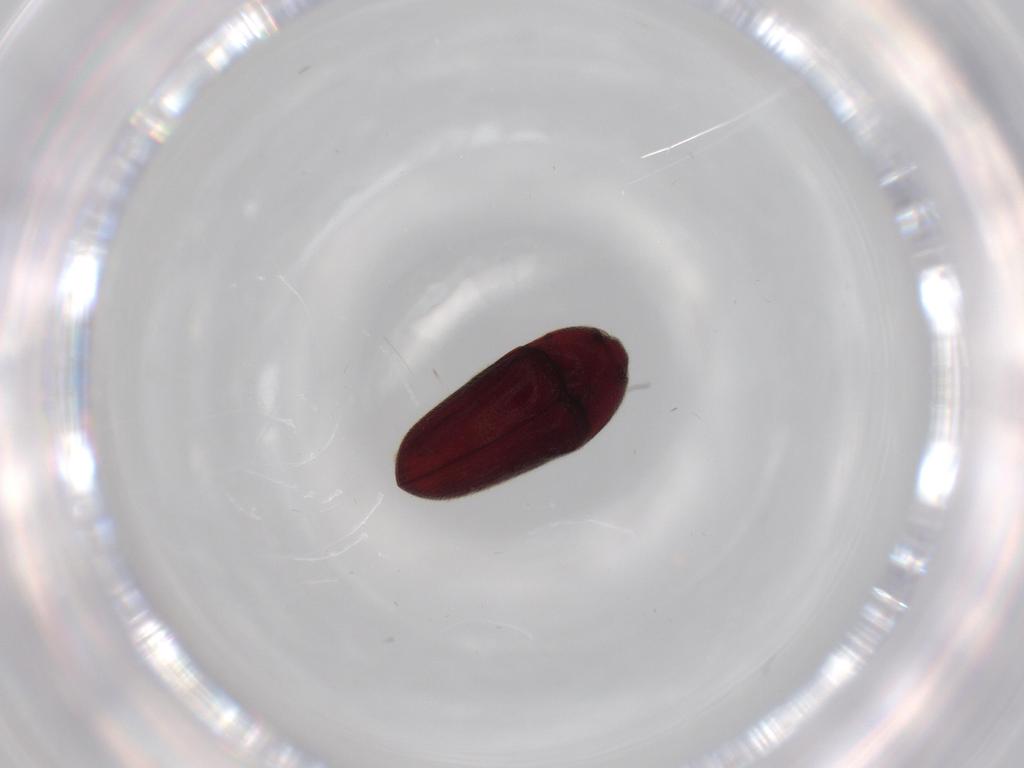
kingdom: Animalia
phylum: Arthropoda
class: Insecta
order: Coleoptera
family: Throscidae
